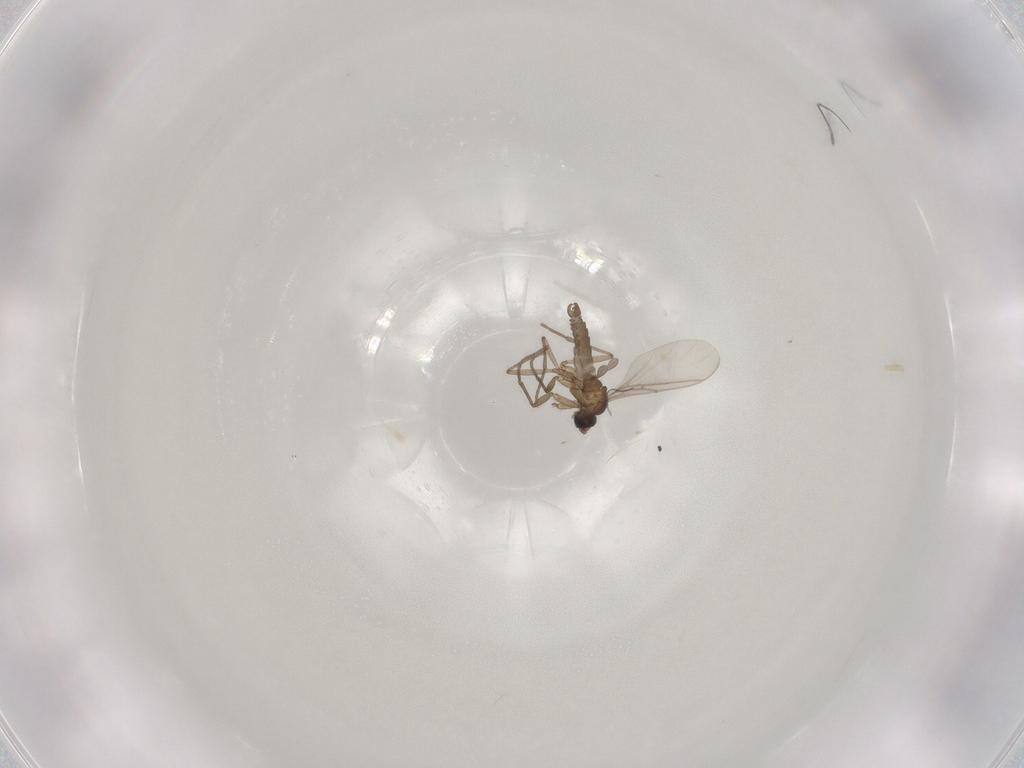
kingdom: Animalia
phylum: Arthropoda
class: Insecta
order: Diptera
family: Sciaridae
